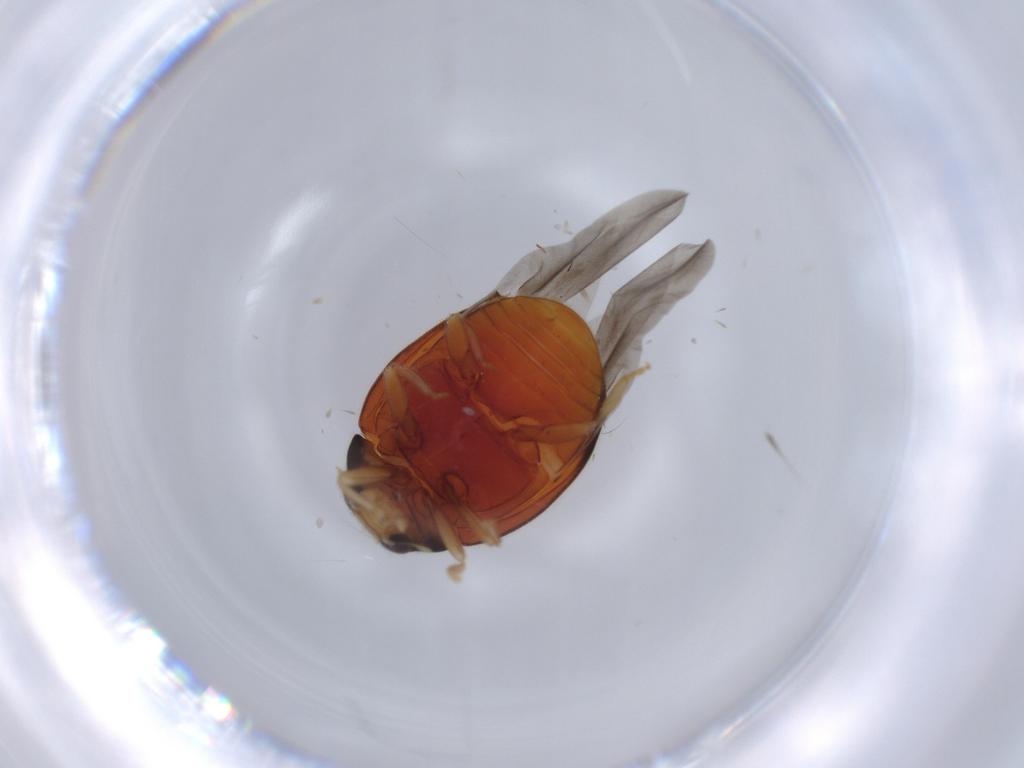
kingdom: Animalia
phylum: Arthropoda
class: Insecta
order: Coleoptera
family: Coccinellidae
